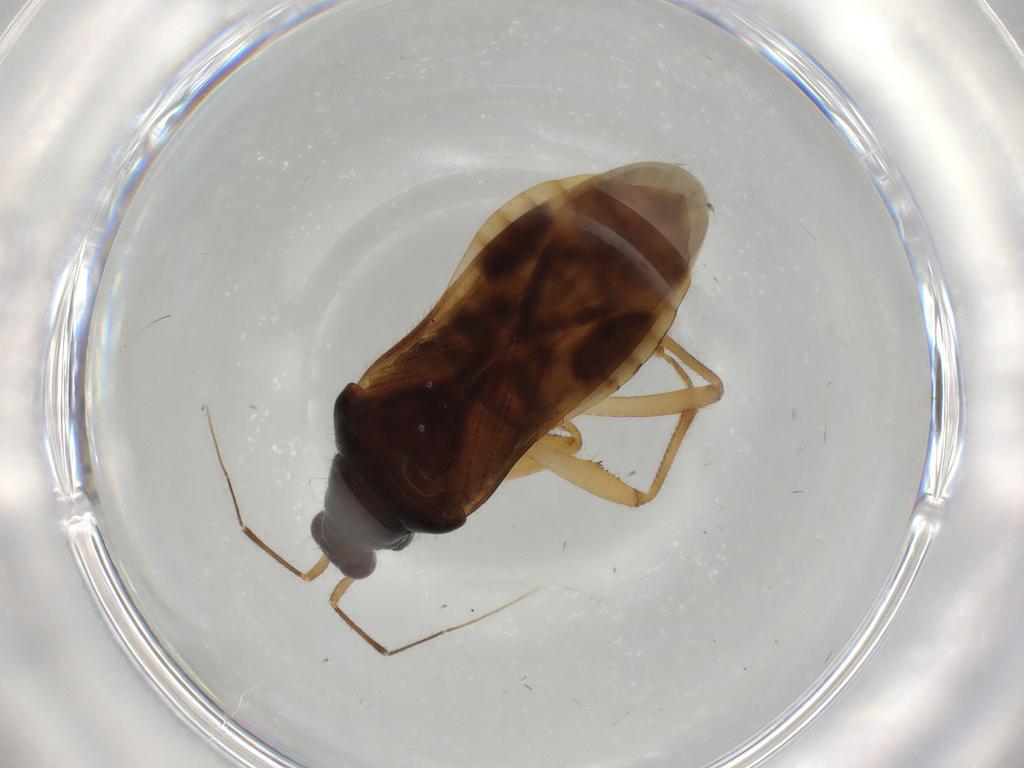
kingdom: Animalia
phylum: Arthropoda
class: Insecta
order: Hemiptera
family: Nabidae
